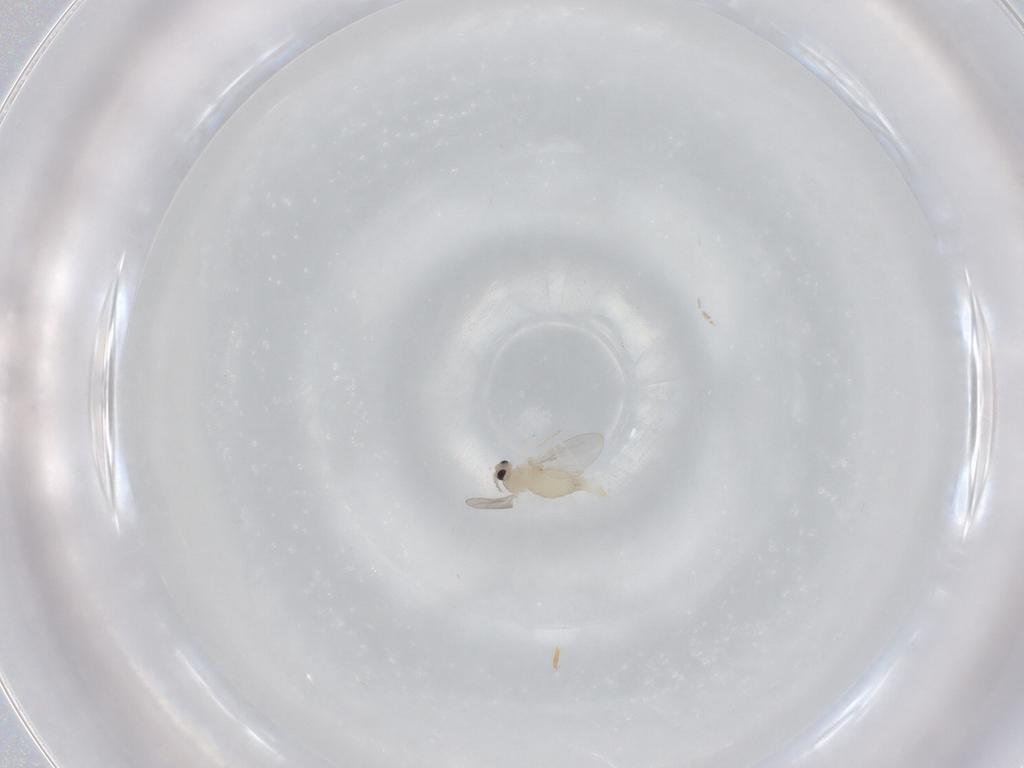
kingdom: Animalia
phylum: Arthropoda
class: Insecta
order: Diptera
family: Cecidomyiidae
